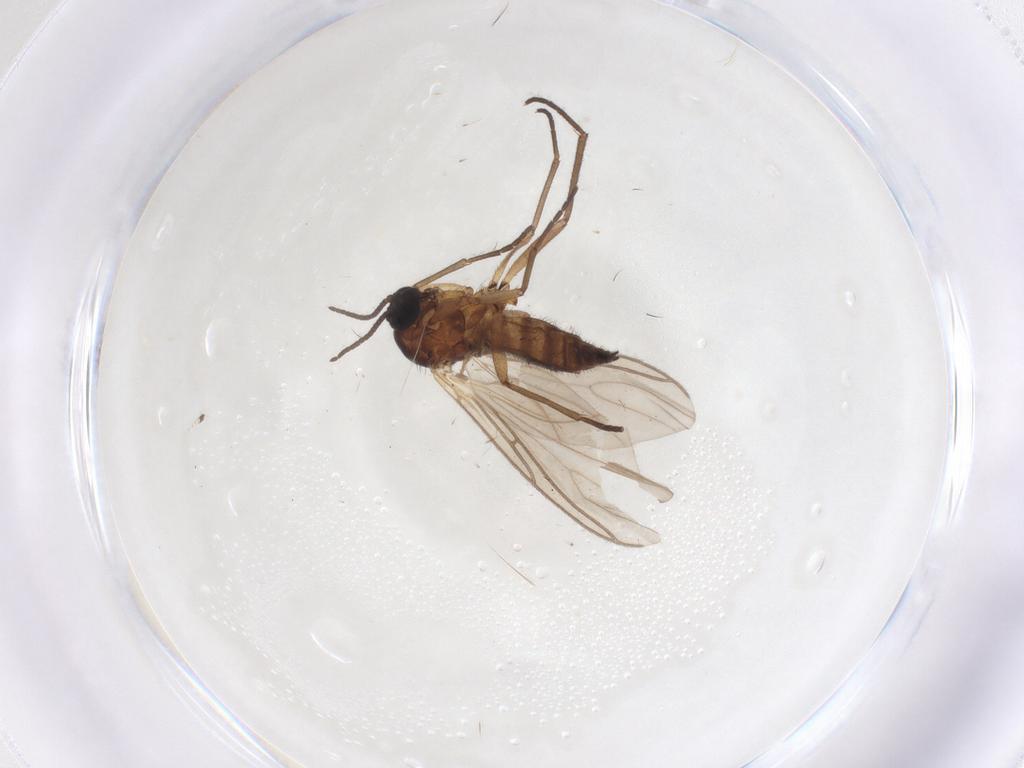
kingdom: Animalia
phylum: Arthropoda
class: Insecta
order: Diptera
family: Sciaridae
